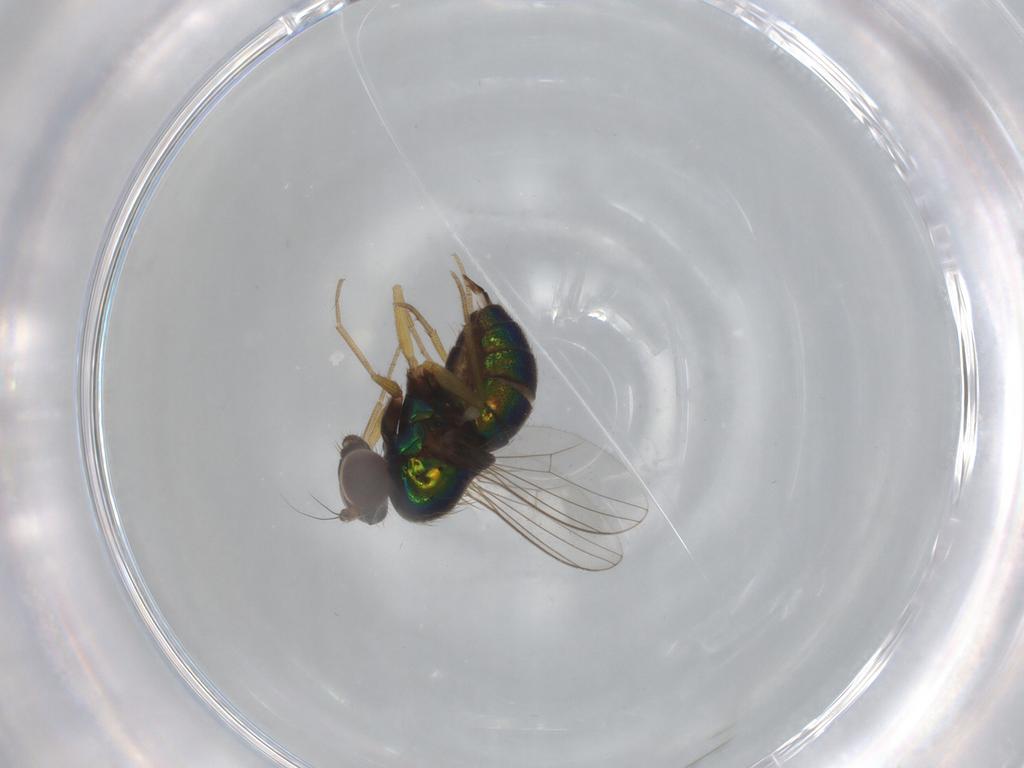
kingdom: Animalia
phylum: Arthropoda
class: Insecta
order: Diptera
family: Dolichopodidae
